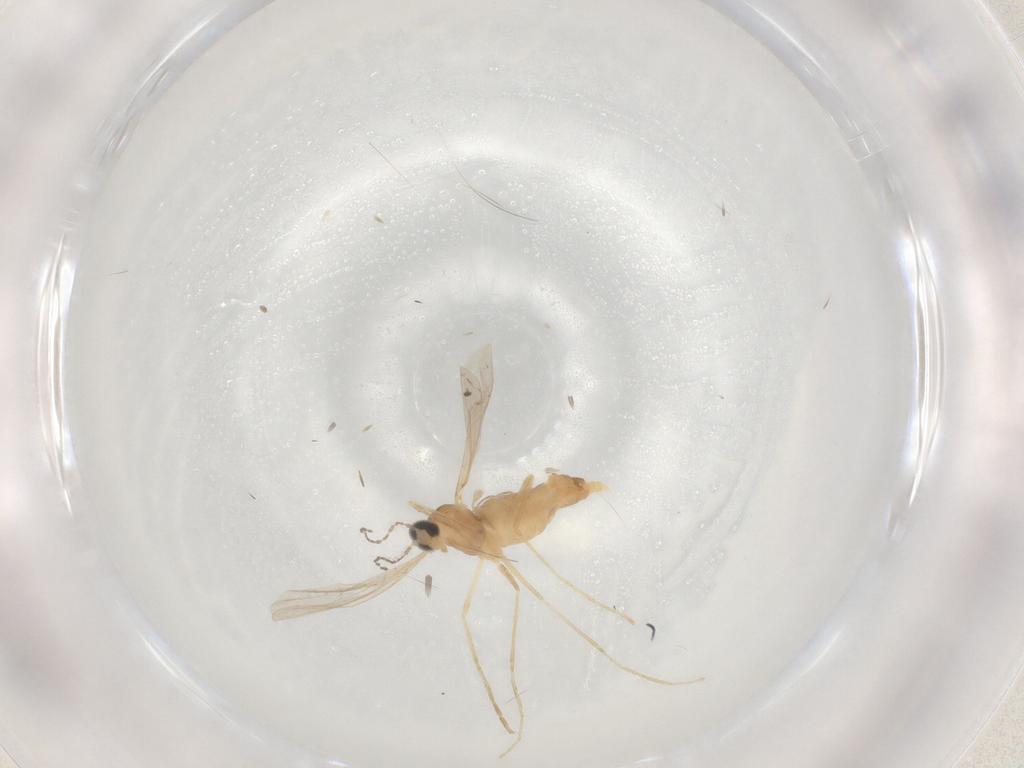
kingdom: Animalia
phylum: Arthropoda
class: Insecta
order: Diptera
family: Cecidomyiidae
